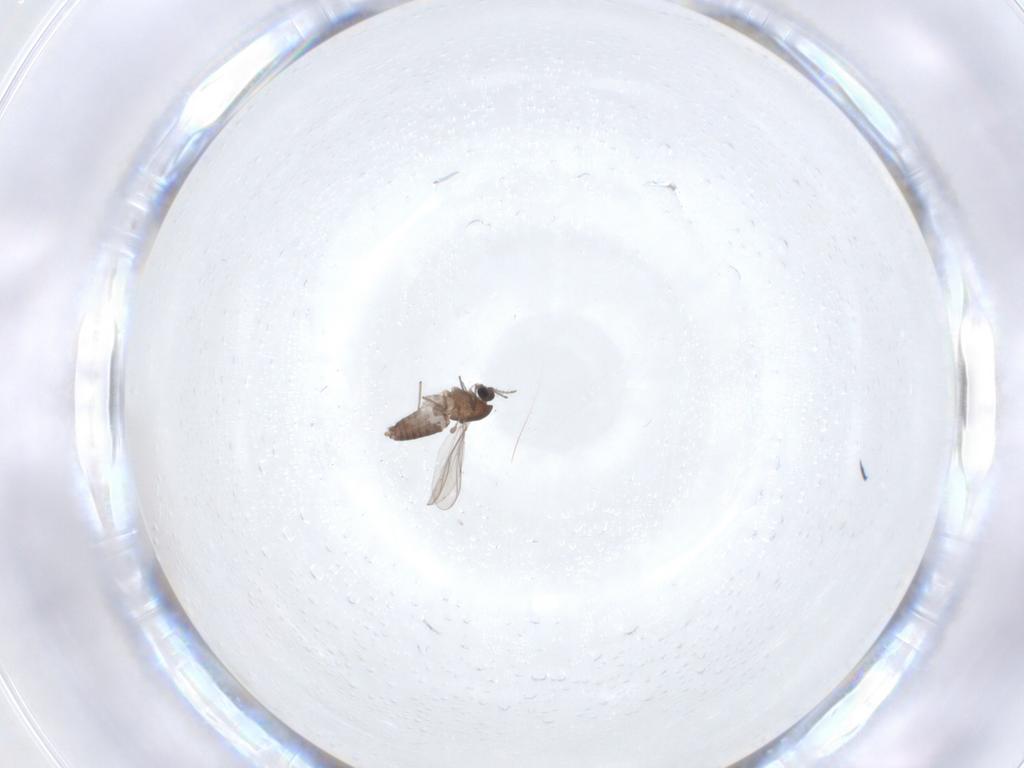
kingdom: Animalia
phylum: Arthropoda
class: Insecta
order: Diptera
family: Chironomidae
